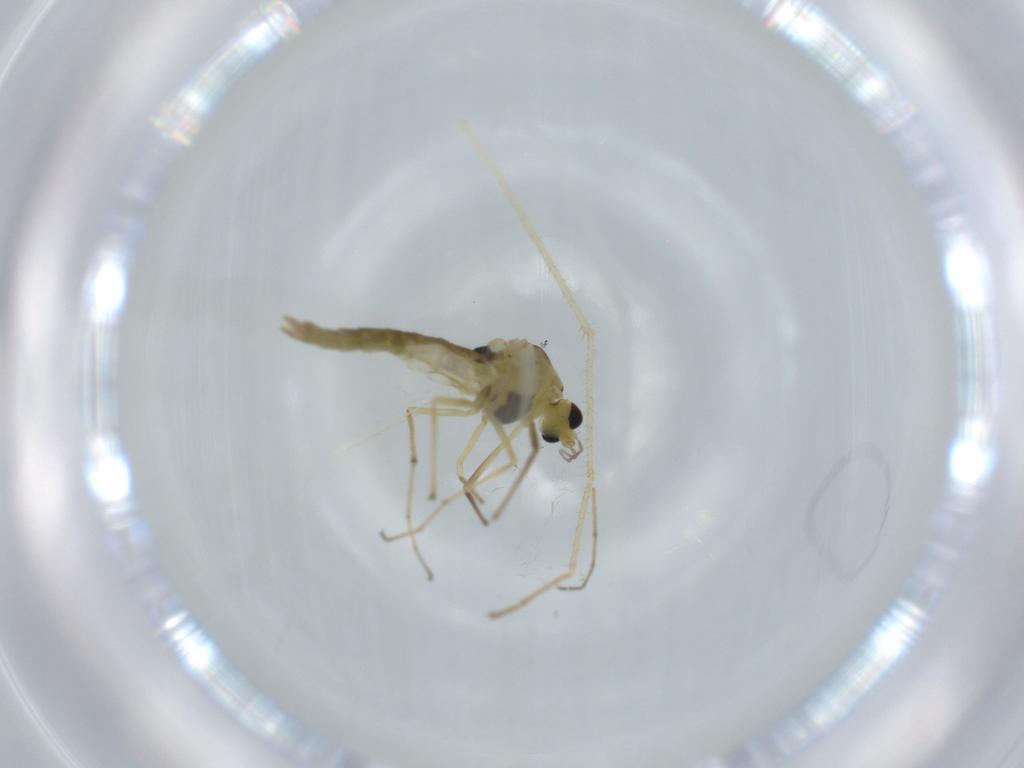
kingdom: Animalia
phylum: Arthropoda
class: Insecta
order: Diptera
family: Chironomidae
